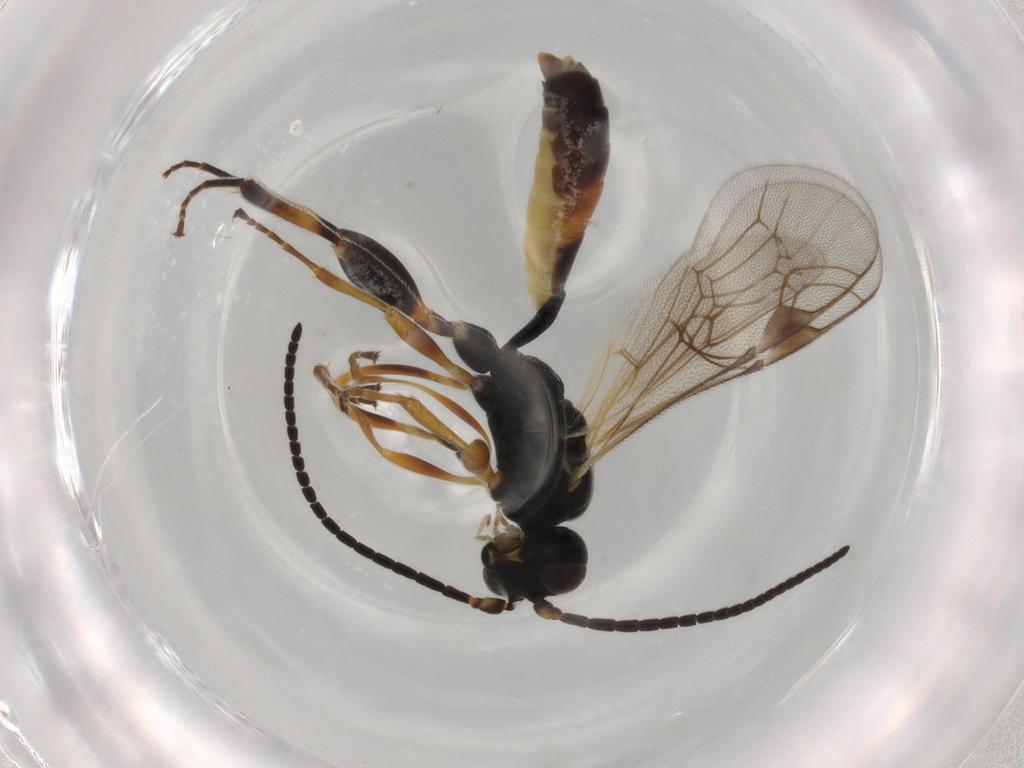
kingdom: Animalia
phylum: Arthropoda
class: Insecta
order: Hymenoptera
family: Ichneumonidae
